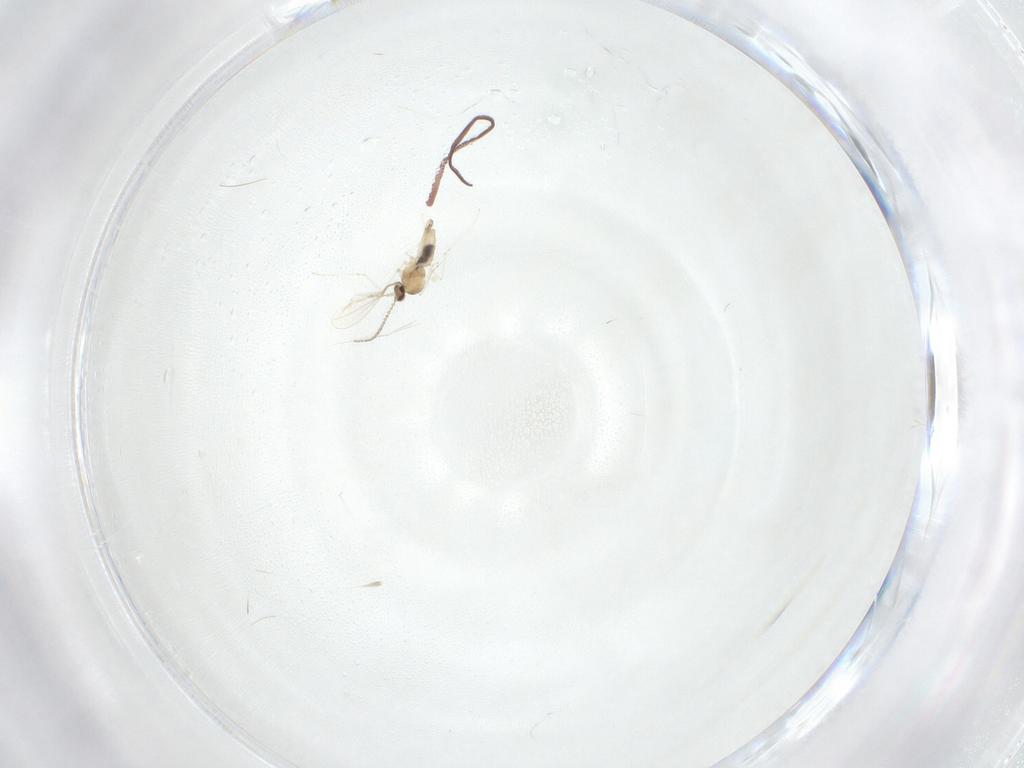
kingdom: Animalia
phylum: Arthropoda
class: Insecta
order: Diptera
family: Cecidomyiidae
